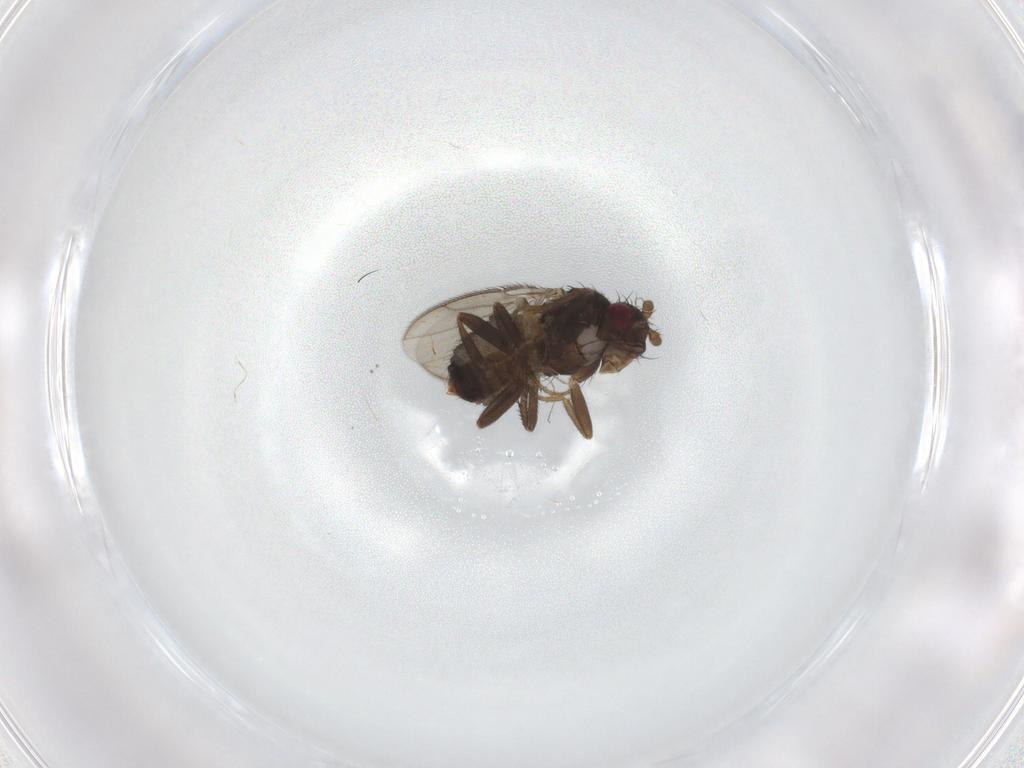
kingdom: Animalia
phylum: Arthropoda
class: Insecta
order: Diptera
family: Sphaeroceridae
